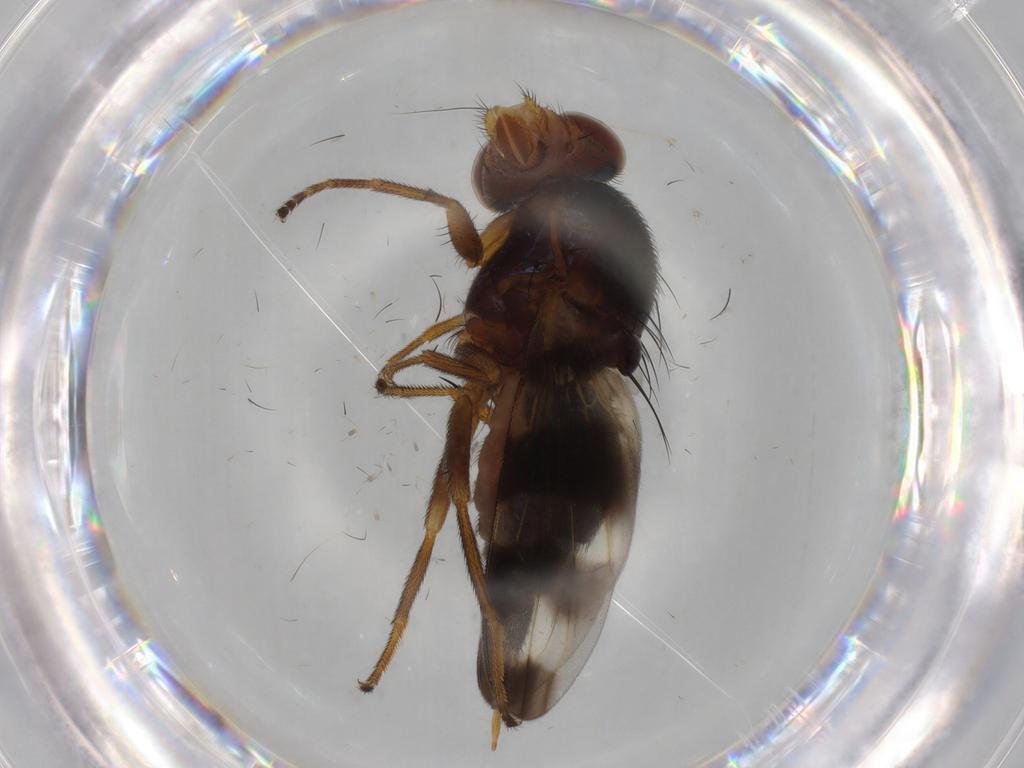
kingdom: Animalia
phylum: Arthropoda
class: Insecta
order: Diptera
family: Ulidiidae
